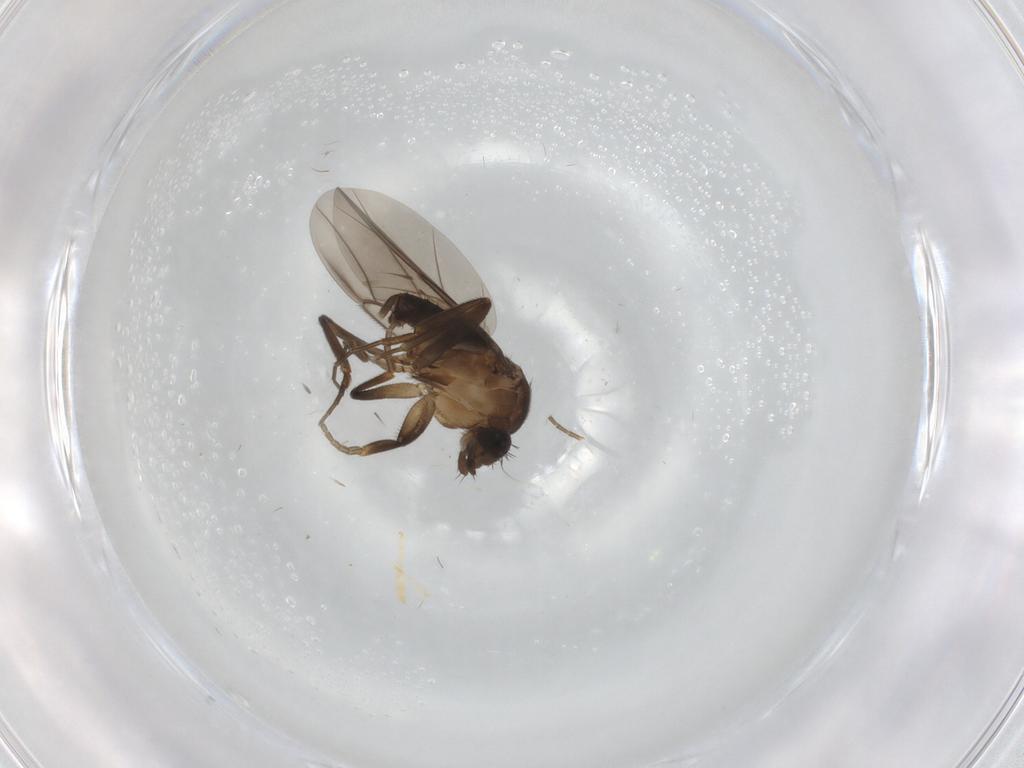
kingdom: Animalia
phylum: Arthropoda
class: Insecta
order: Diptera
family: Phoridae
